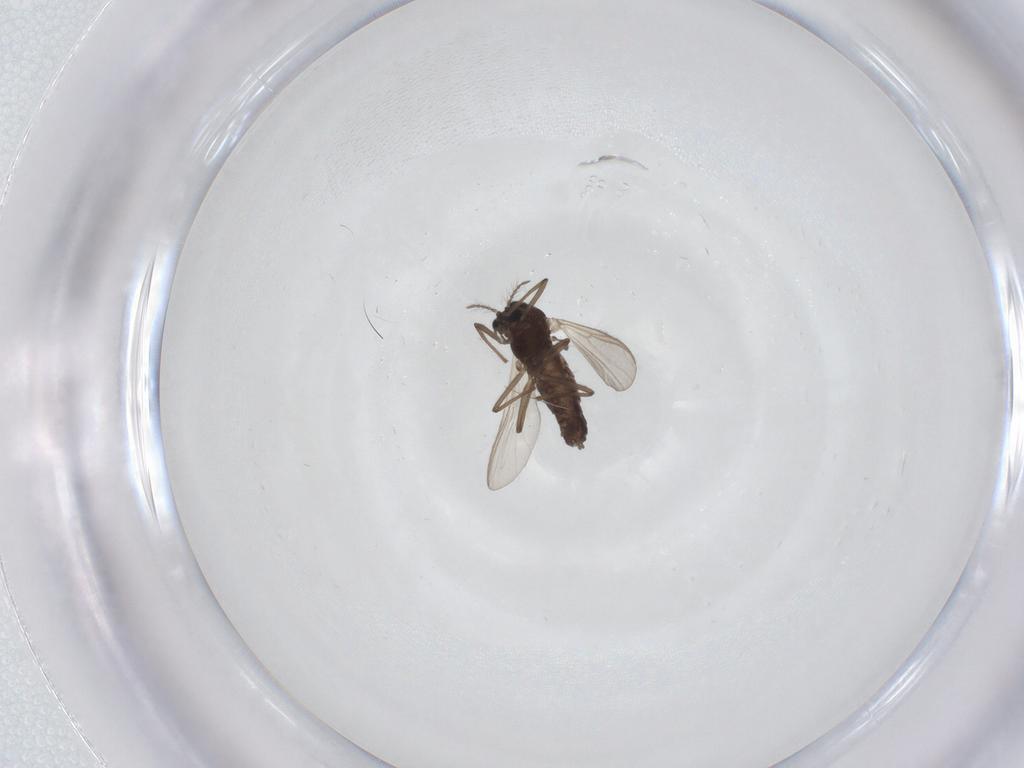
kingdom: Animalia
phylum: Arthropoda
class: Insecta
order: Diptera
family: Chironomidae
